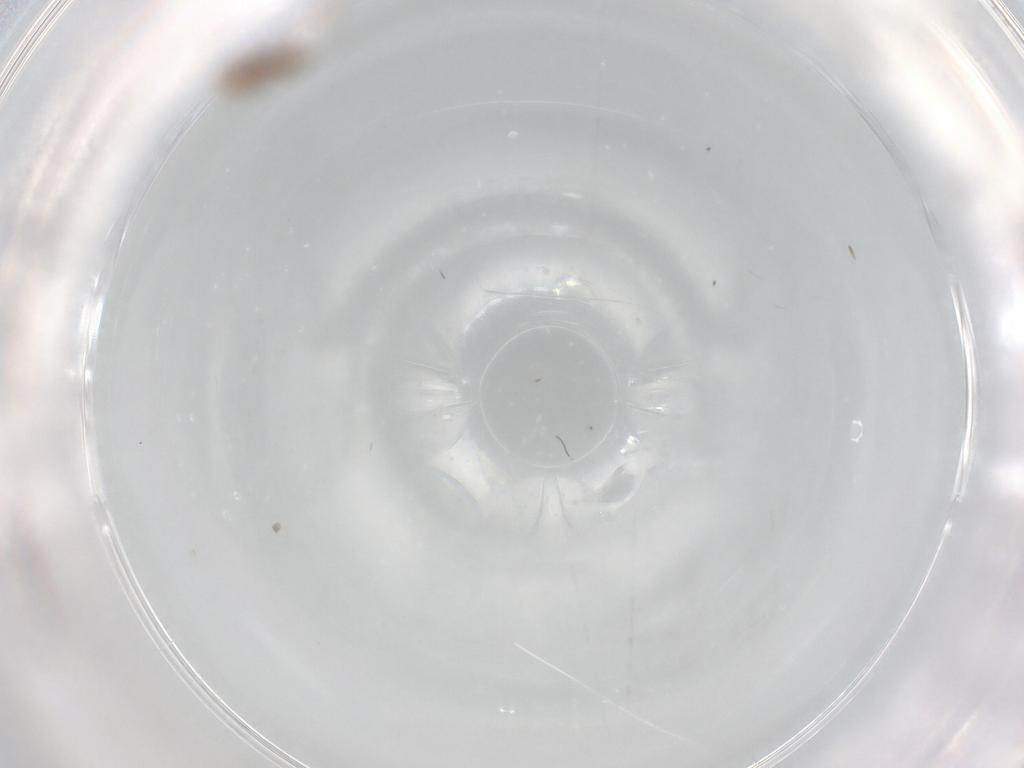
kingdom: Animalia
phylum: Arthropoda
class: Insecta
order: Diptera
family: Cecidomyiidae
